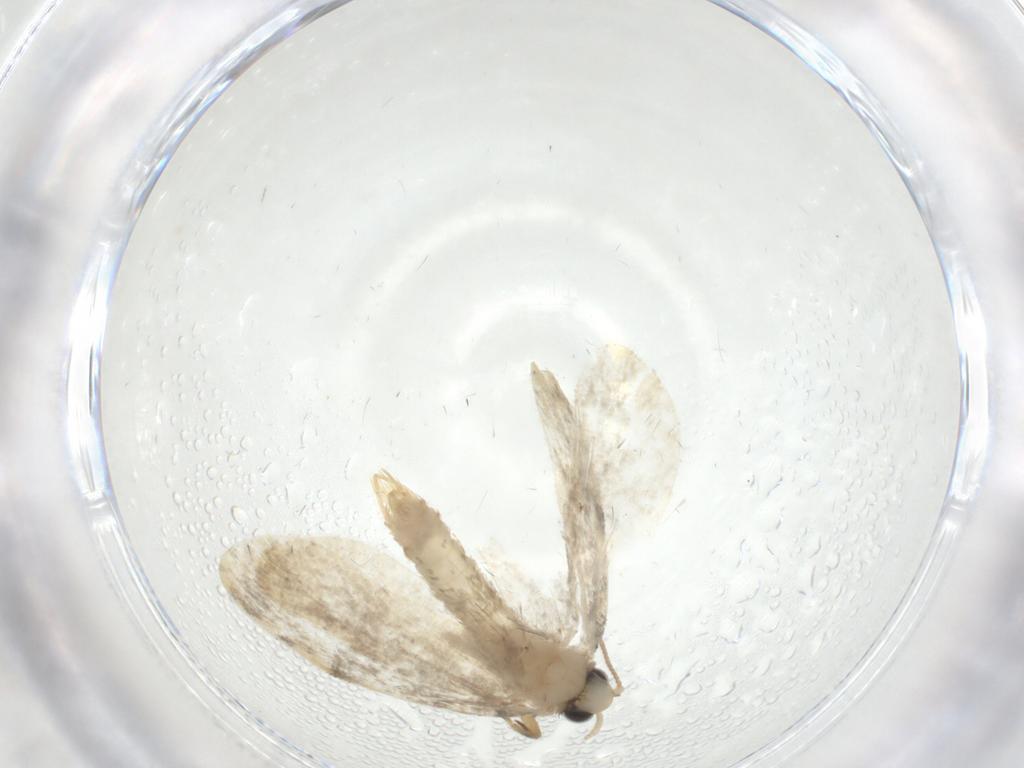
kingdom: Animalia
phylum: Arthropoda
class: Insecta
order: Lepidoptera
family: Psychidae
